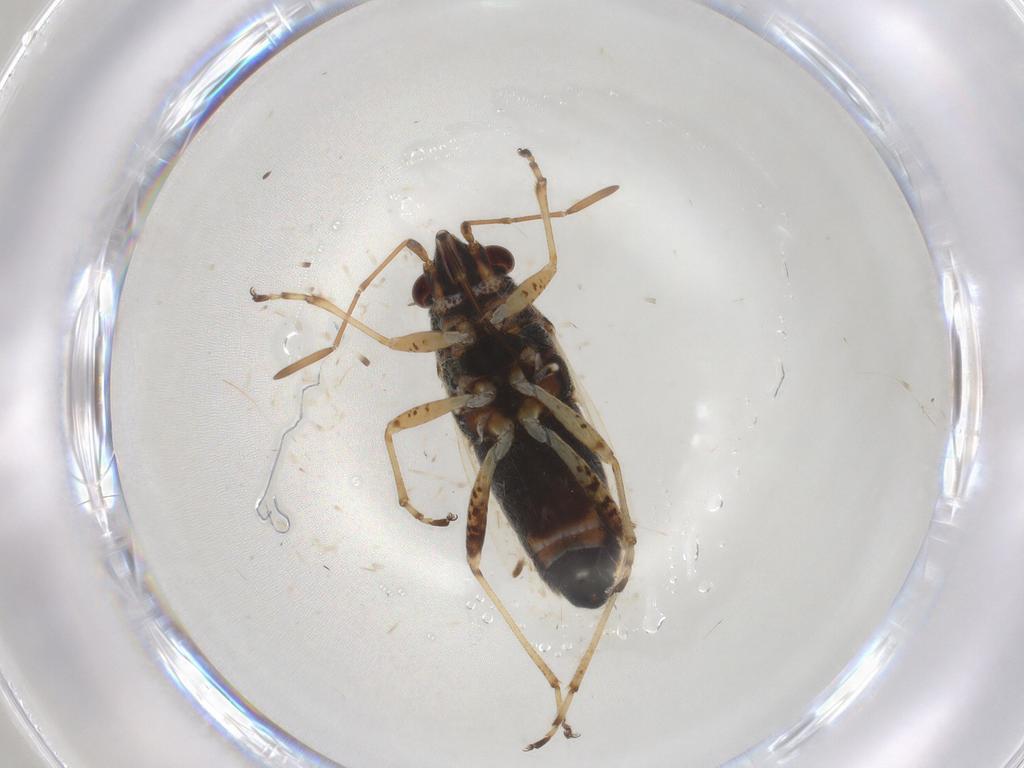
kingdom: Animalia
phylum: Arthropoda
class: Insecta
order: Hemiptera
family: Lygaeidae
